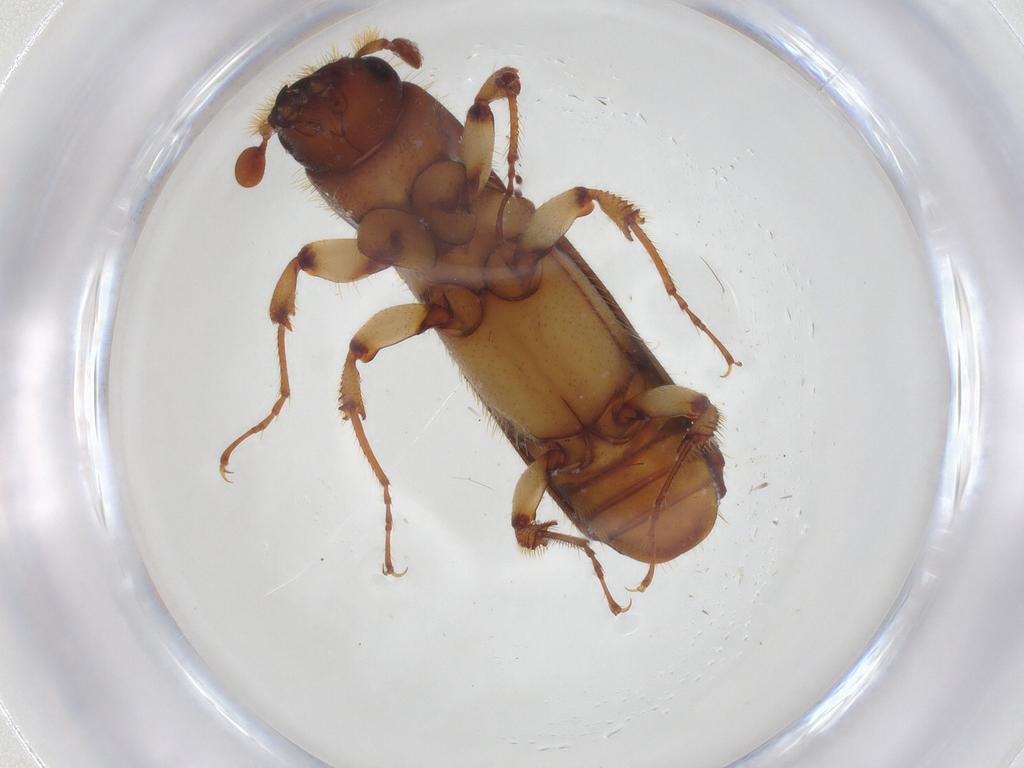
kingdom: Animalia
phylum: Arthropoda
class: Insecta
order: Coleoptera
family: Curculionidae
